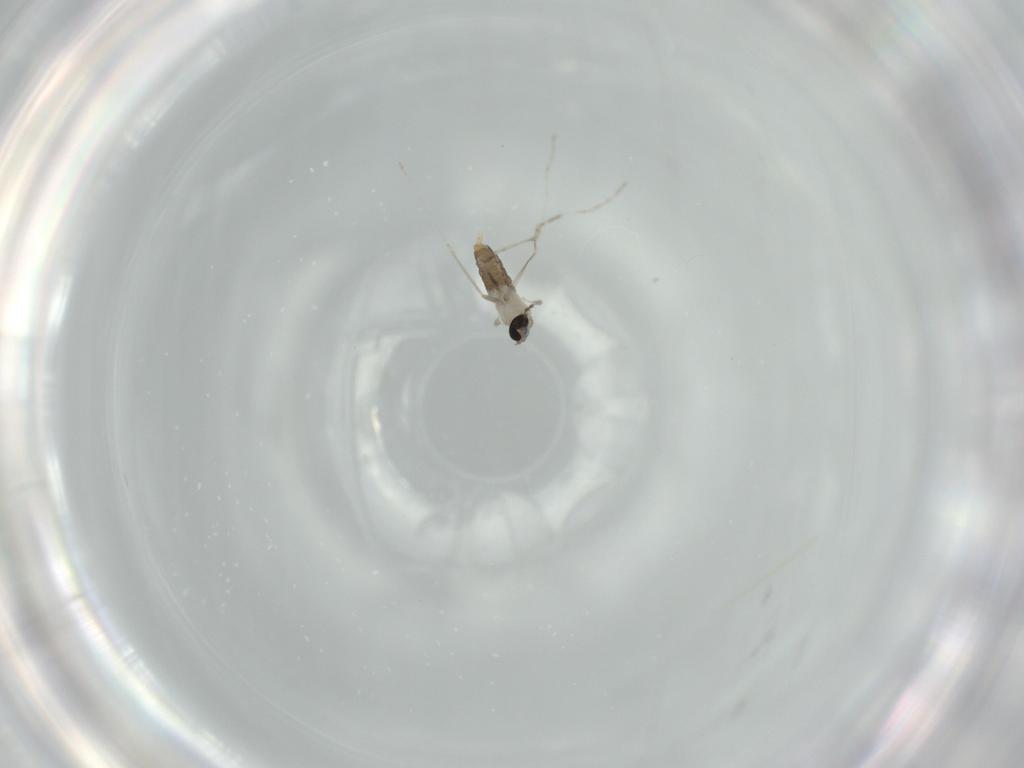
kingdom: Animalia
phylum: Arthropoda
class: Insecta
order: Diptera
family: Cecidomyiidae
